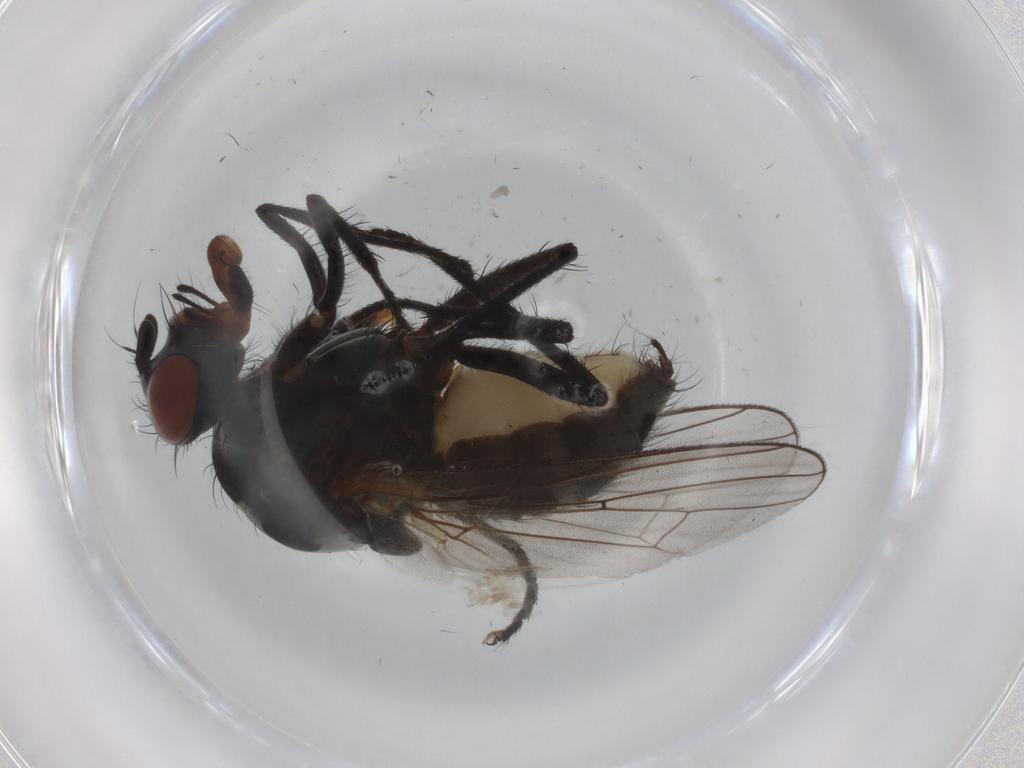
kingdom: Animalia
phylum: Arthropoda
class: Insecta
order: Diptera
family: Anthomyiidae
